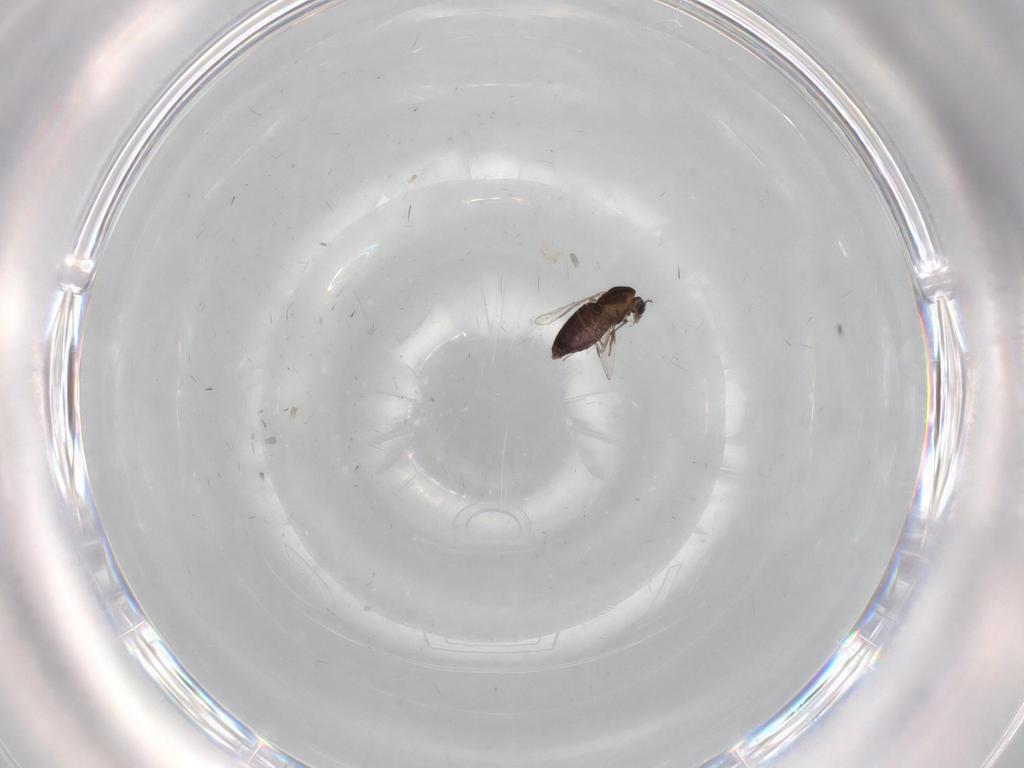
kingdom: Animalia
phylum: Arthropoda
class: Insecta
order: Diptera
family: Chironomidae
